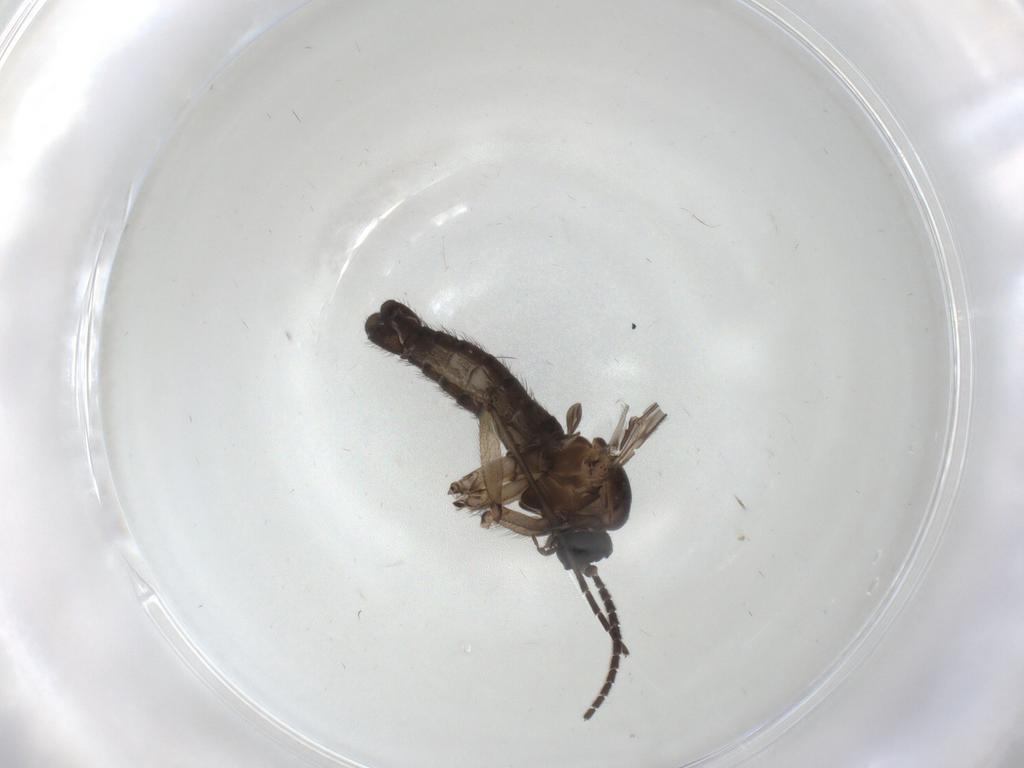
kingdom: Animalia
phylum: Arthropoda
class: Insecta
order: Diptera
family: Sciaridae
